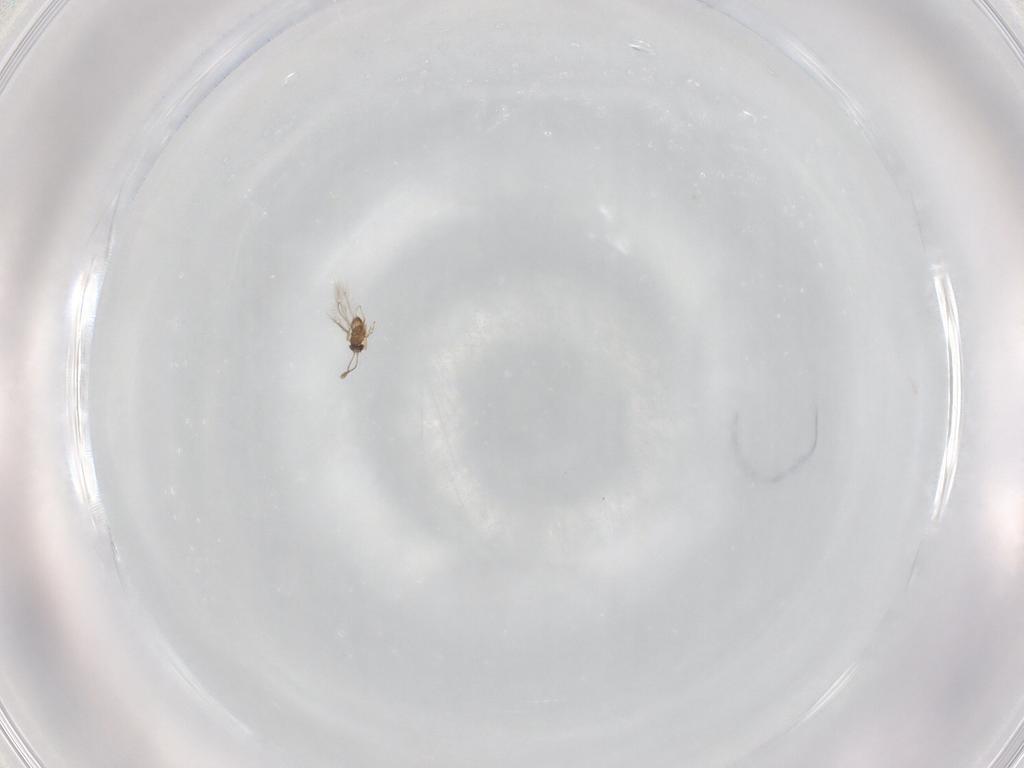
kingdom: Animalia
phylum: Arthropoda
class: Insecta
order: Hymenoptera
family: Mymaridae
